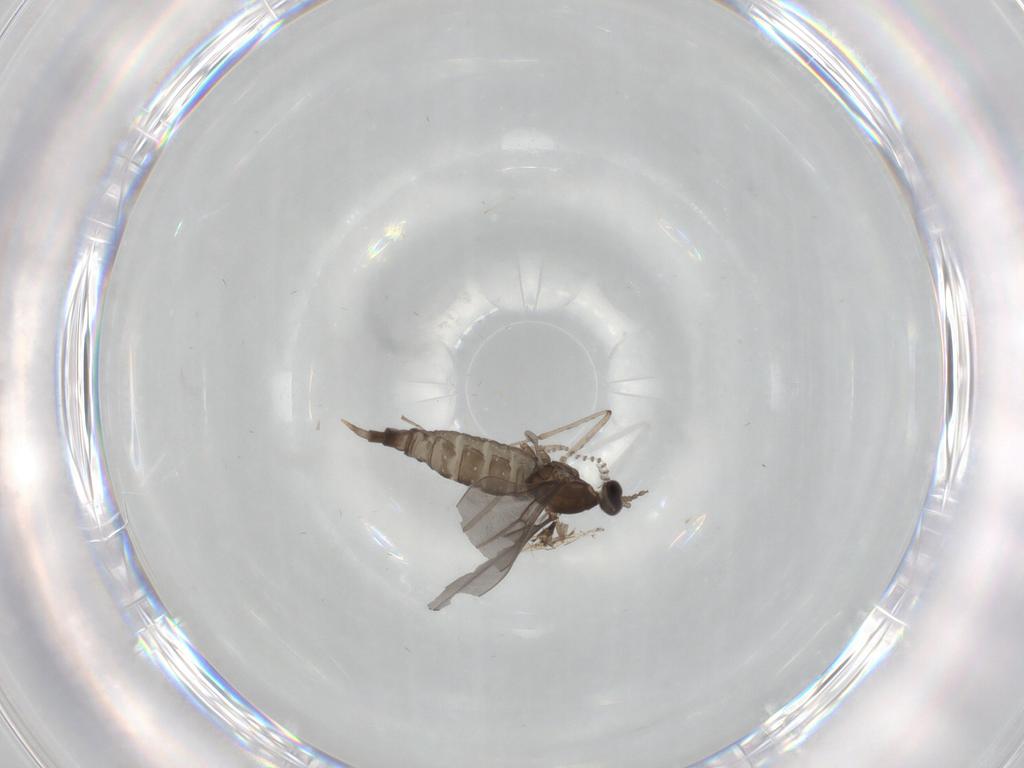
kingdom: Animalia
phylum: Arthropoda
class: Insecta
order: Diptera
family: Cecidomyiidae
